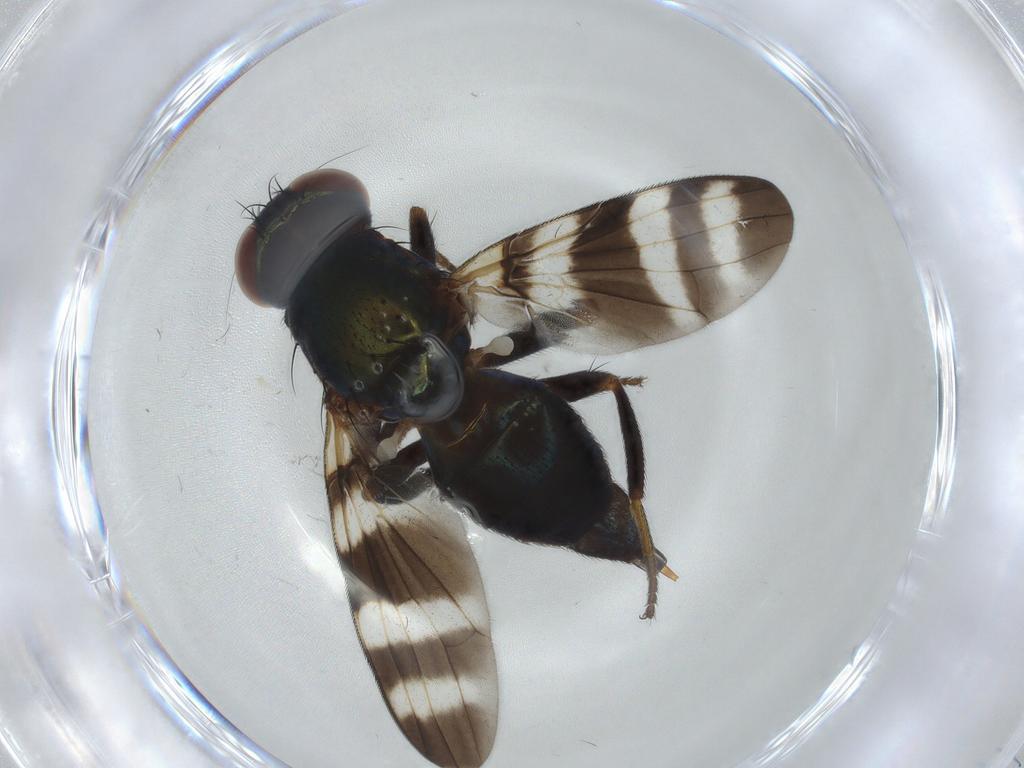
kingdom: Animalia
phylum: Arthropoda
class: Insecta
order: Diptera
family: Ulidiidae
